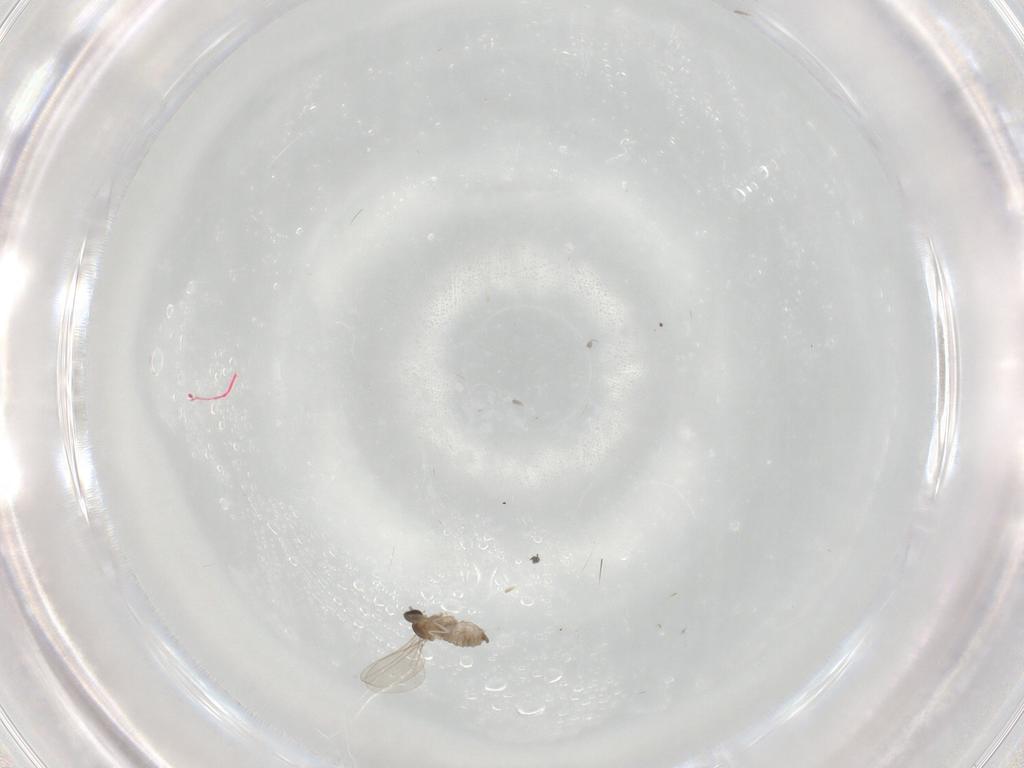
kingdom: Animalia
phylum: Arthropoda
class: Insecta
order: Diptera
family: Cecidomyiidae
